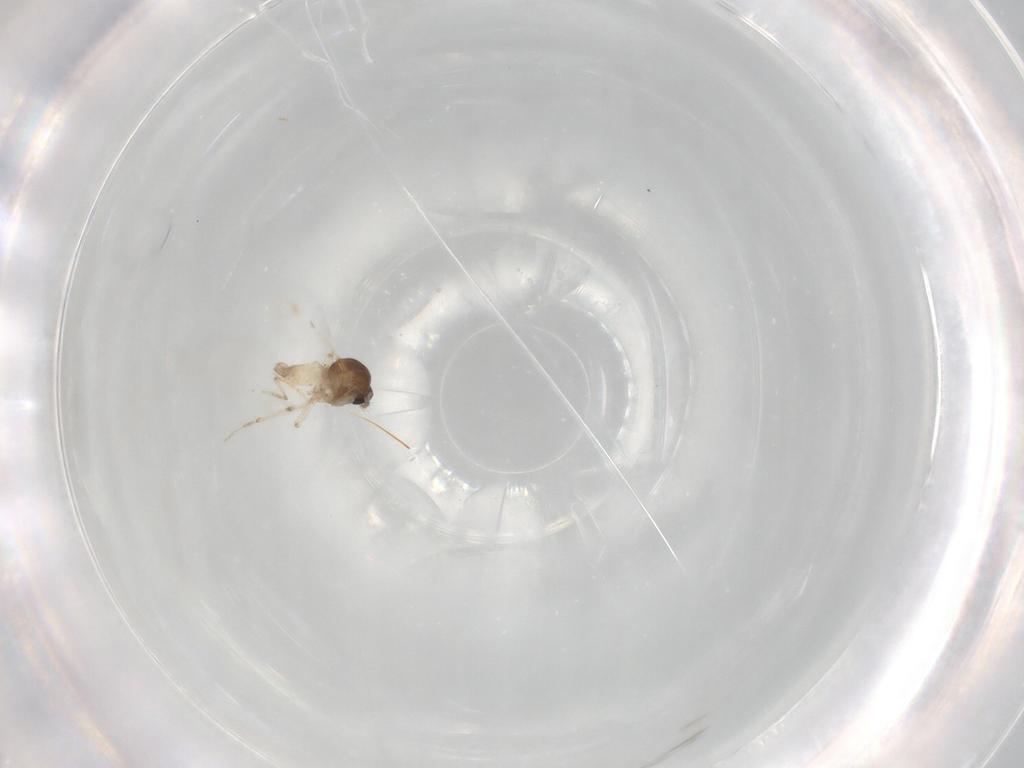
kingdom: Animalia
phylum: Arthropoda
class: Insecta
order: Diptera
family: Ceratopogonidae
